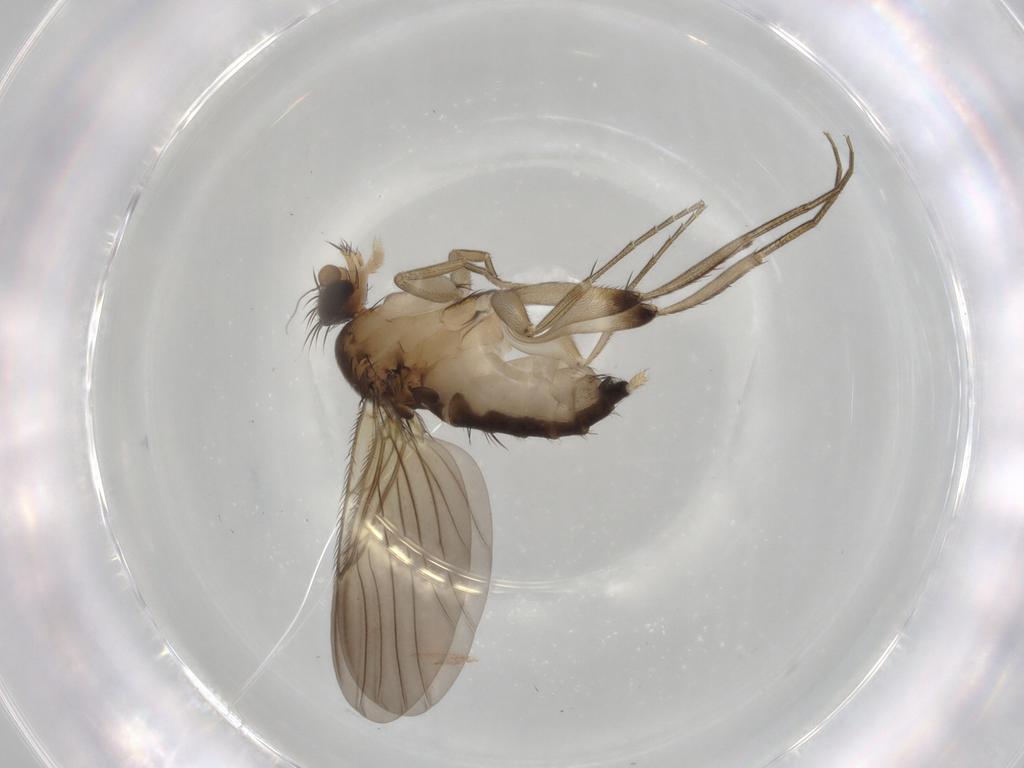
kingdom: Animalia
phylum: Arthropoda
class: Insecta
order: Diptera
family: Phoridae
